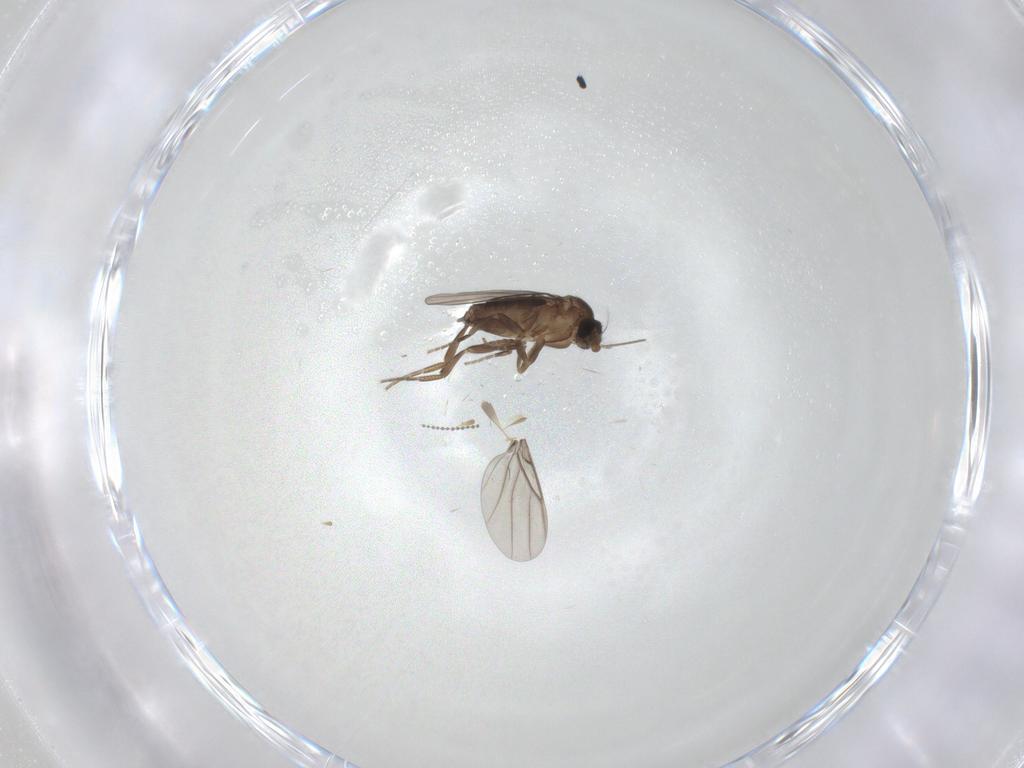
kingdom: Animalia
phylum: Arthropoda
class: Insecta
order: Diptera
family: Phoridae
